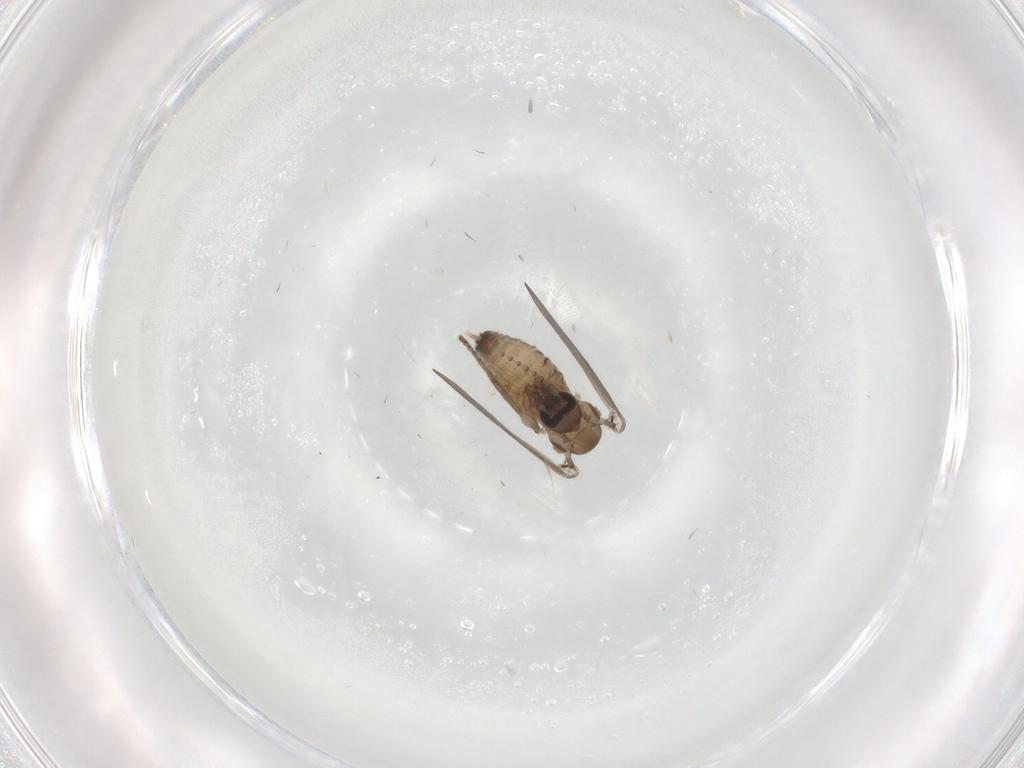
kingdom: Animalia
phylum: Arthropoda
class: Insecta
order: Diptera
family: Psychodidae
